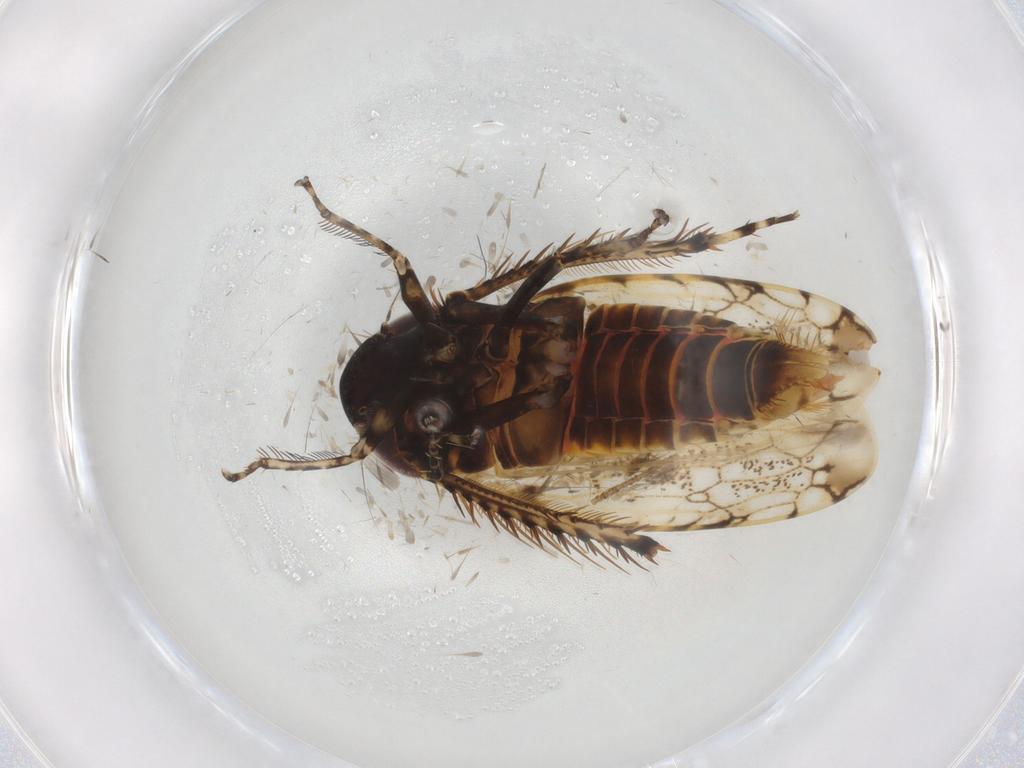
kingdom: Animalia
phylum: Arthropoda
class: Insecta
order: Hemiptera
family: Cicadellidae
